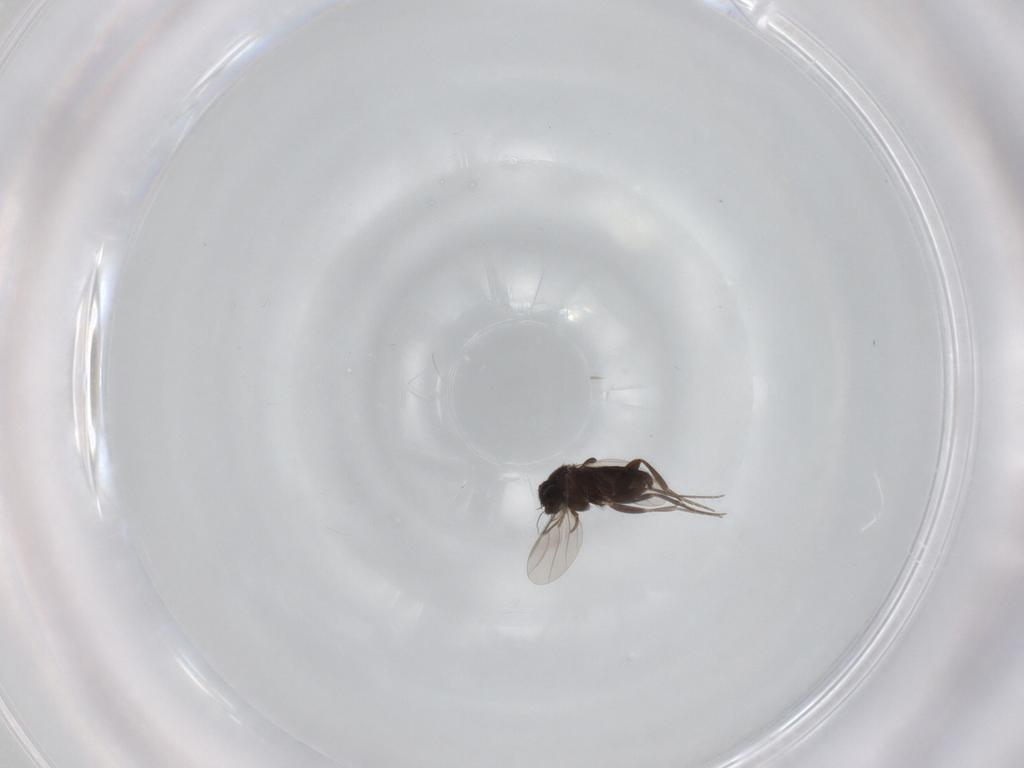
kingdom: Animalia
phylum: Arthropoda
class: Insecta
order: Diptera
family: Phoridae
